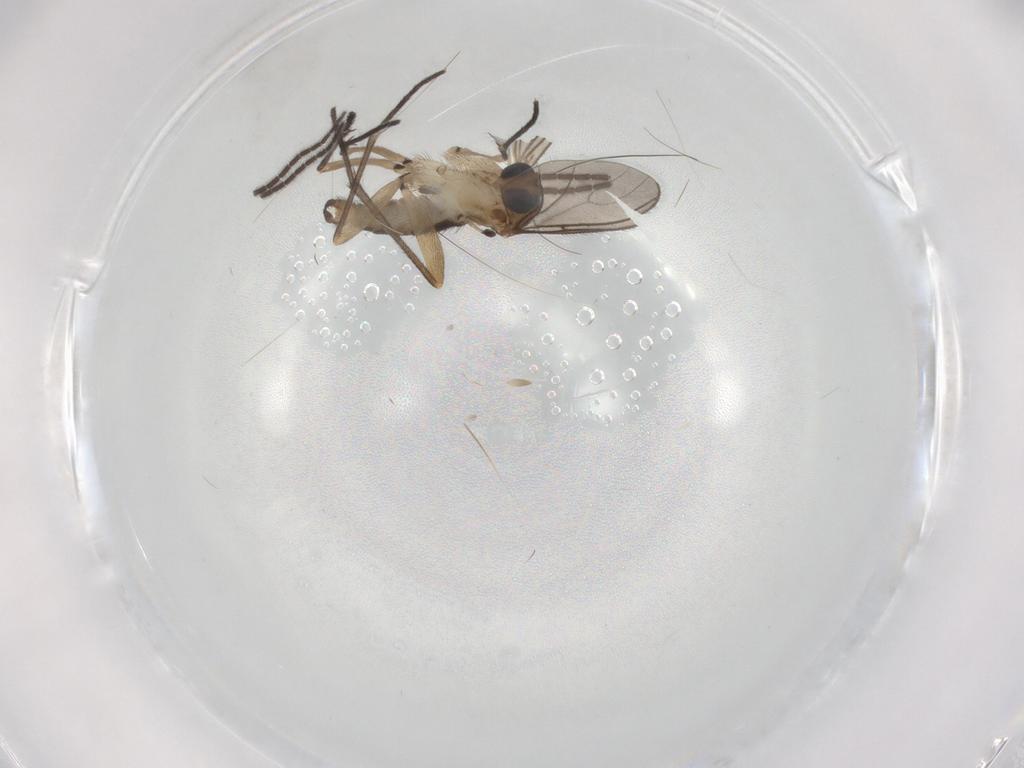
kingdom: Animalia
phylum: Arthropoda
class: Insecta
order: Diptera
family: Sciaridae
